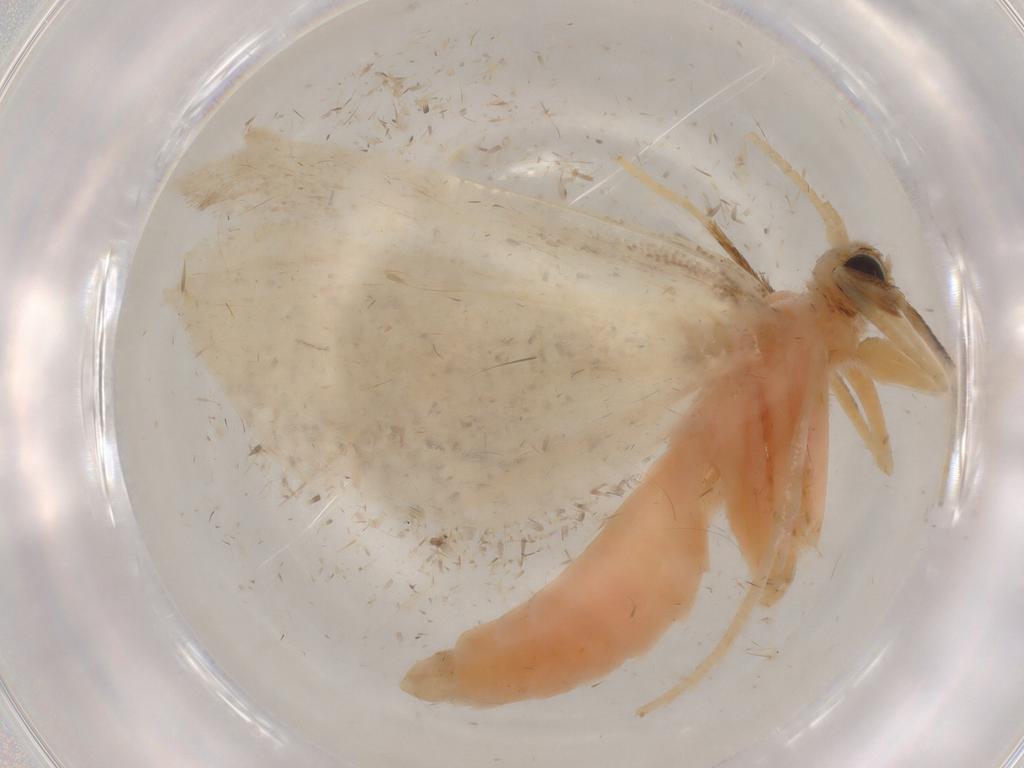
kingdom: Animalia
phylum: Arthropoda
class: Insecta
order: Lepidoptera
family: Crambidae
